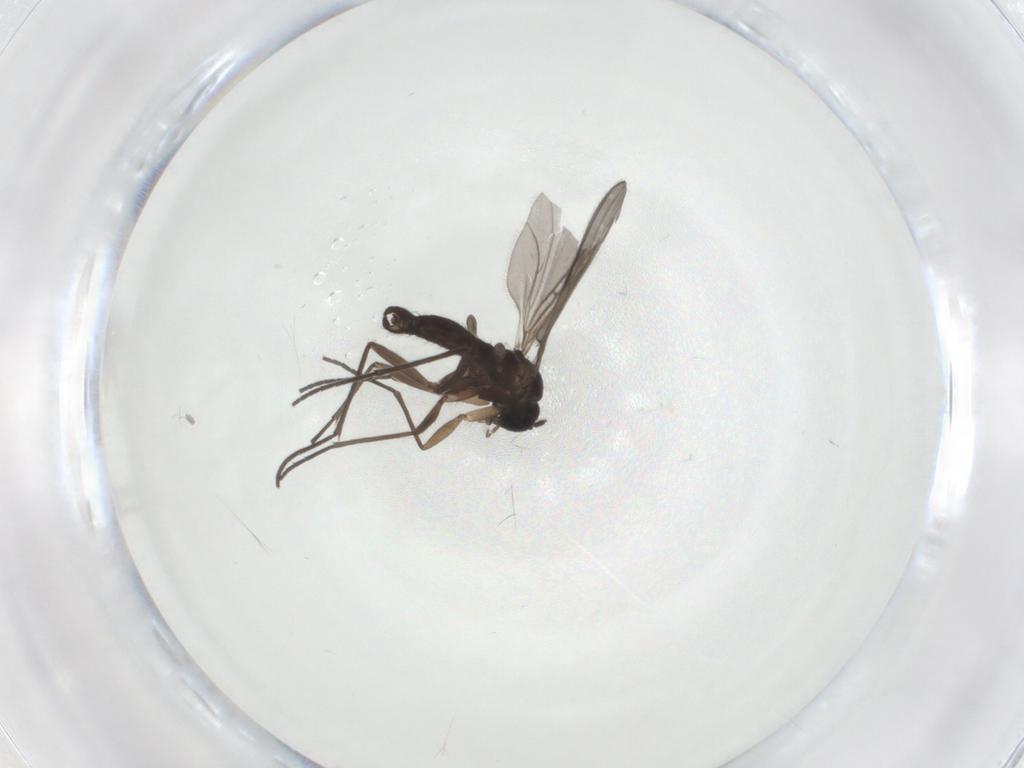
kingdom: Animalia
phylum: Arthropoda
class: Insecta
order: Diptera
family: Sciaridae
